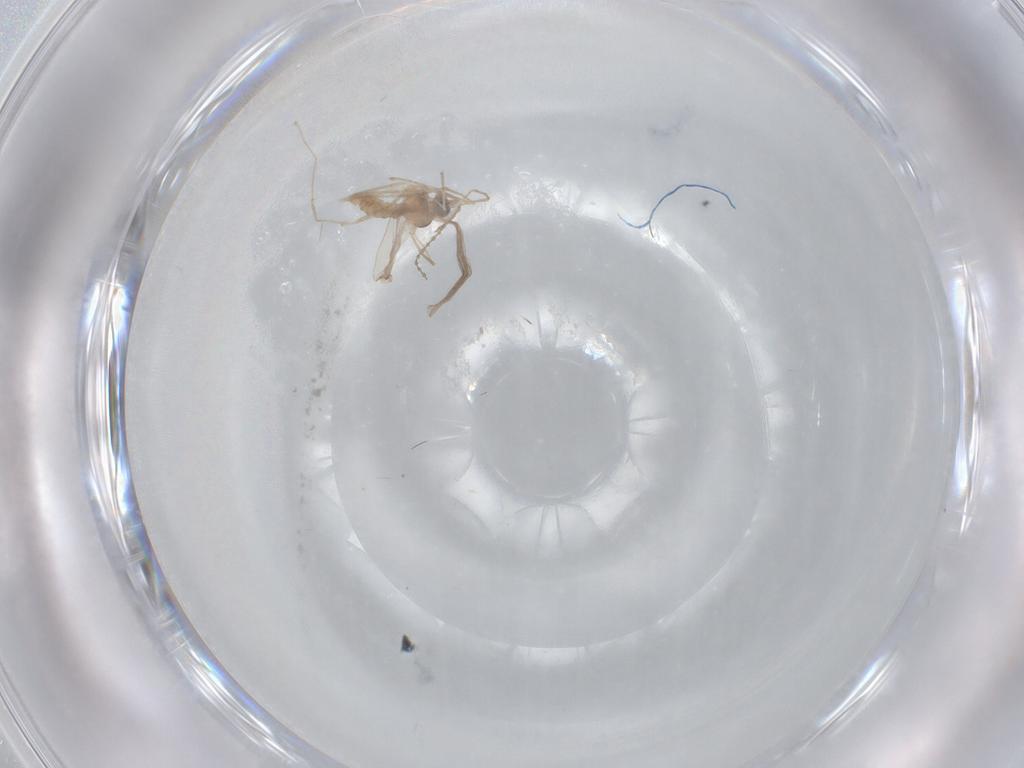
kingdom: Animalia
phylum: Arthropoda
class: Insecta
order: Diptera
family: Cecidomyiidae
